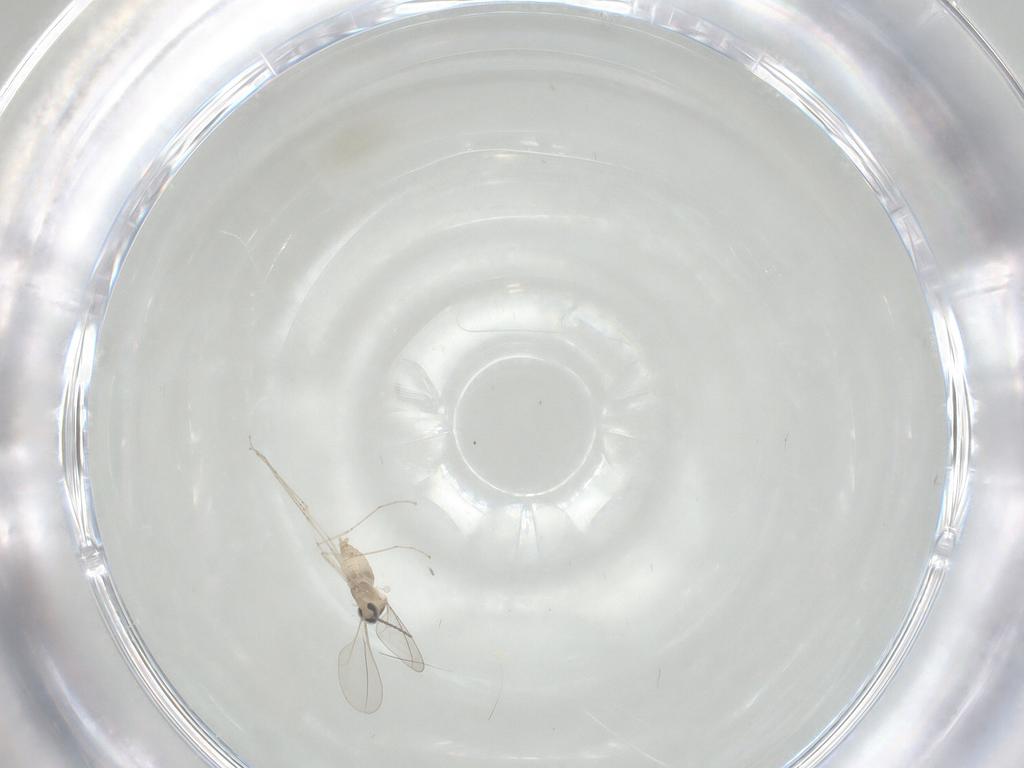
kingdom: Animalia
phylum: Arthropoda
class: Insecta
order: Diptera
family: Cecidomyiidae
